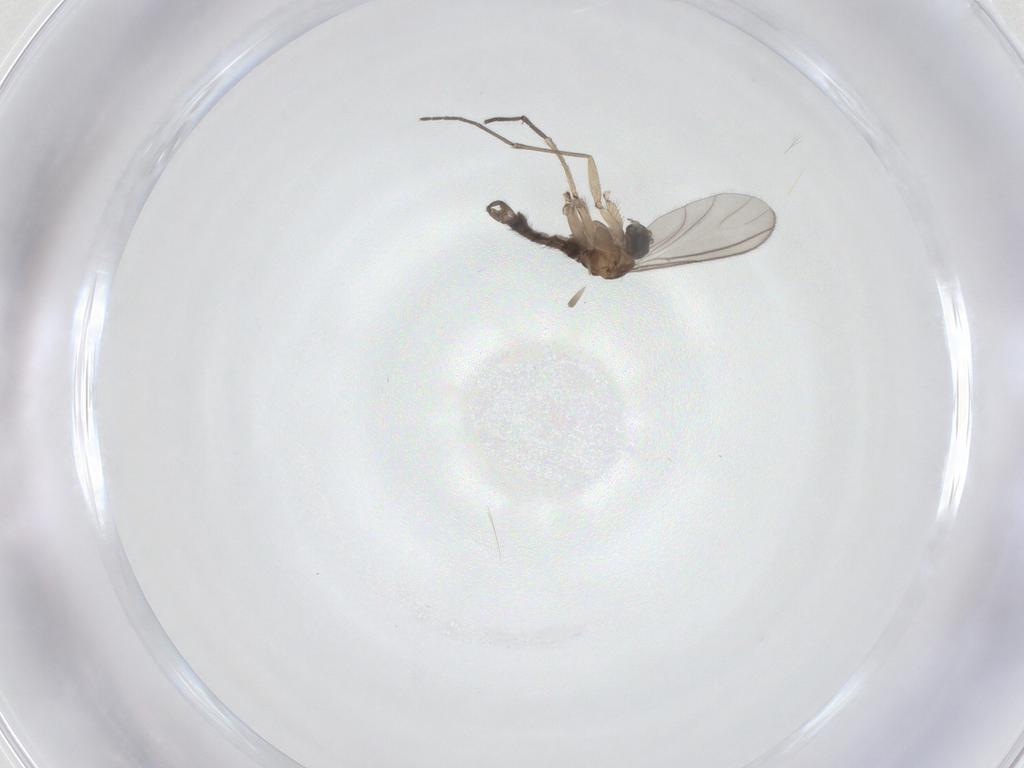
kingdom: Animalia
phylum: Arthropoda
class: Insecta
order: Diptera
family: Sciaridae
